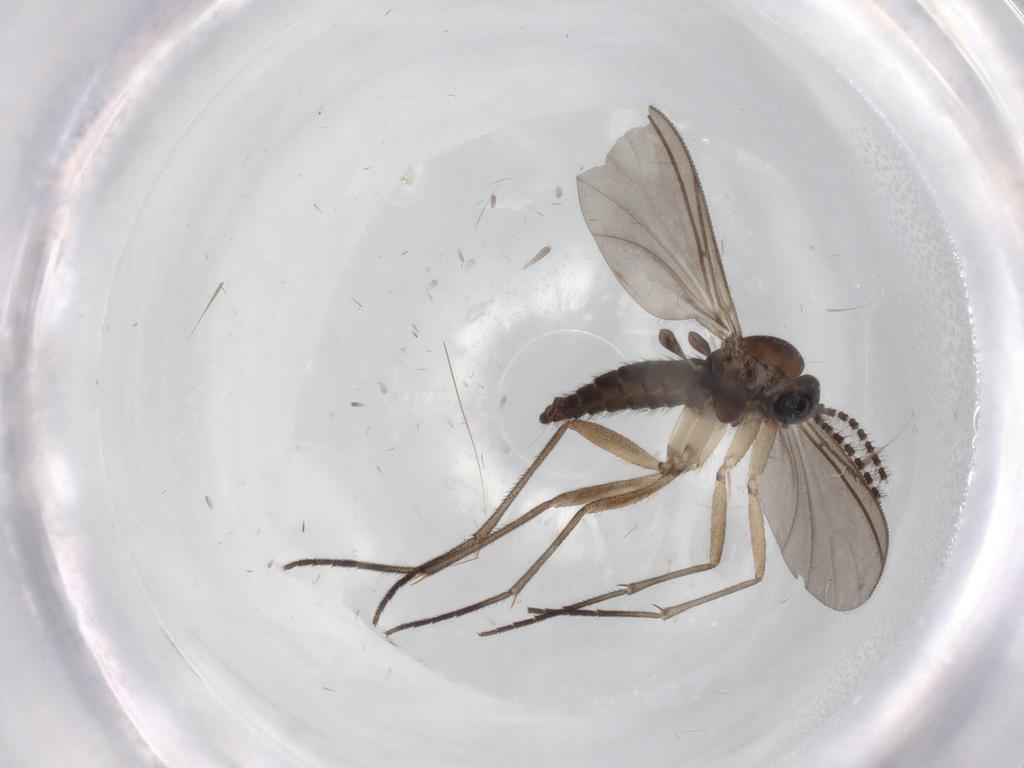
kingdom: Animalia
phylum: Arthropoda
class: Insecta
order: Diptera
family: Sciaridae
